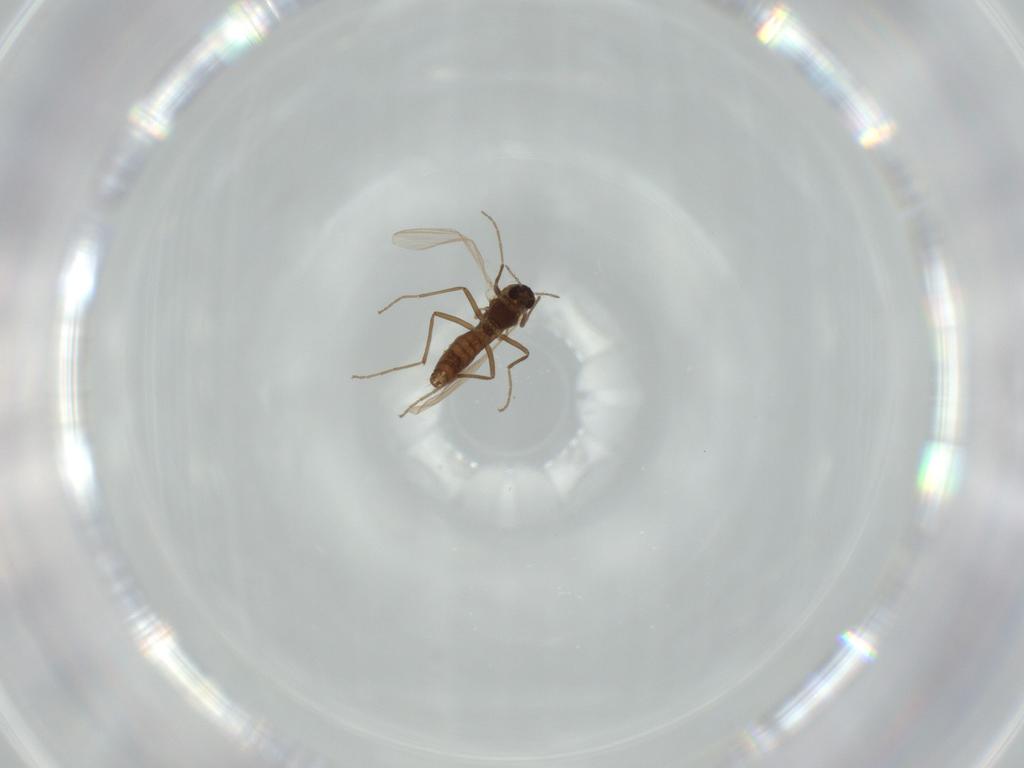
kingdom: Animalia
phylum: Arthropoda
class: Insecta
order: Diptera
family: Chironomidae
